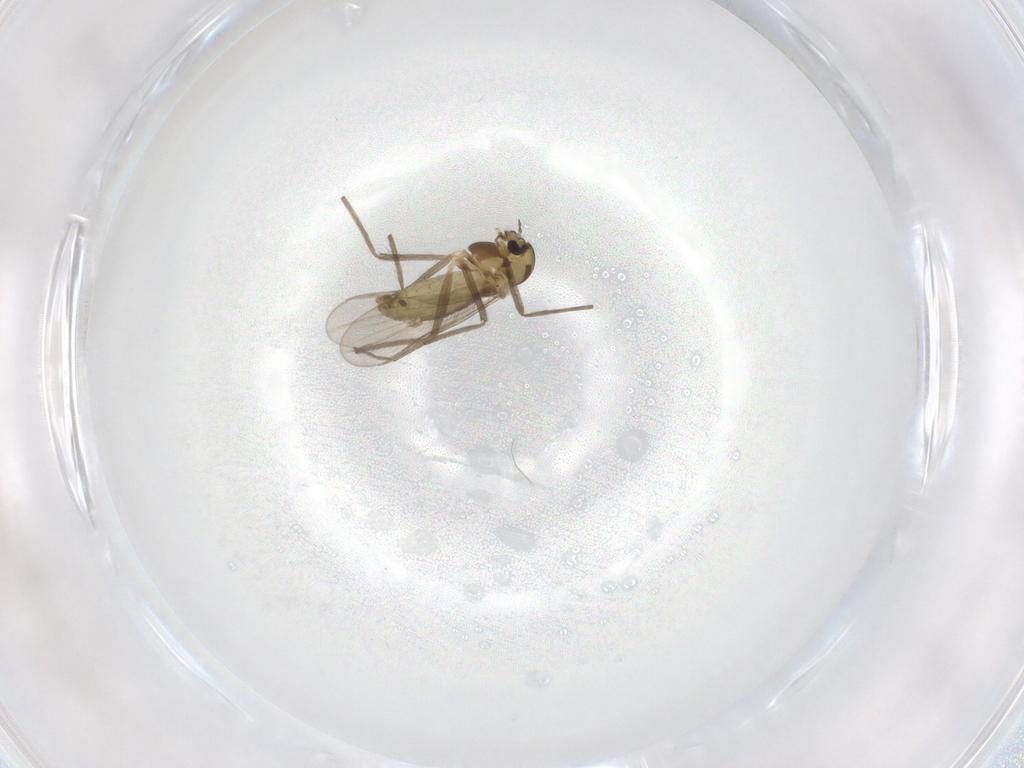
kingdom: Animalia
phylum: Arthropoda
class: Insecta
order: Diptera
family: Chironomidae
